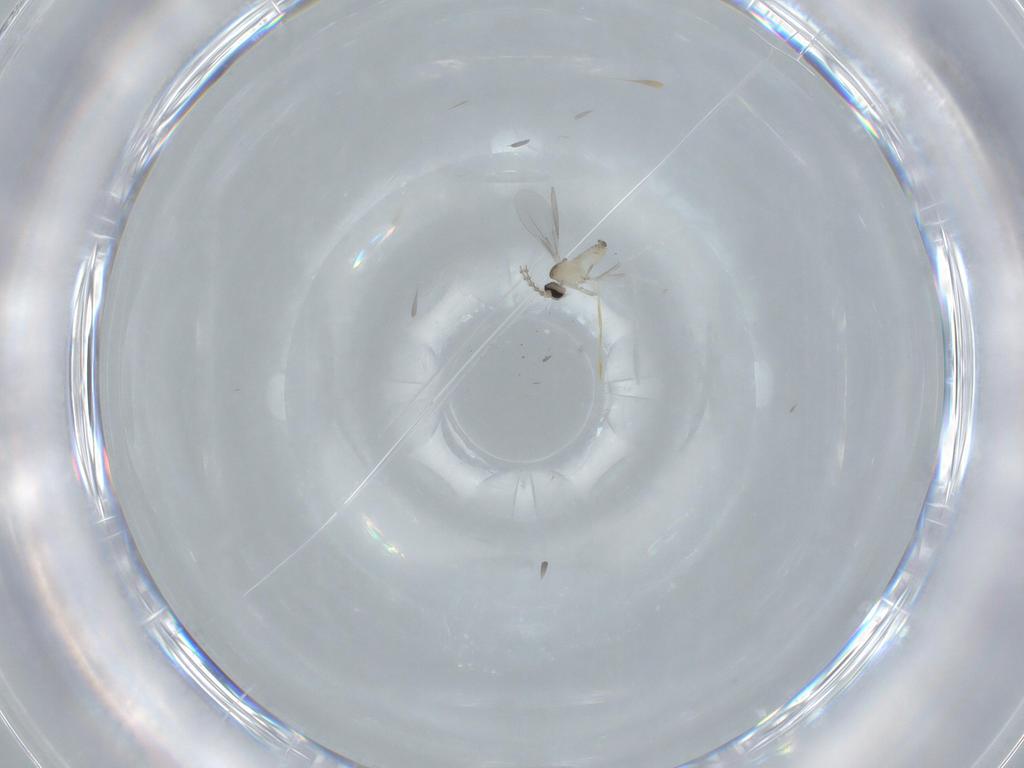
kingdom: Animalia
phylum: Arthropoda
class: Insecta
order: Diptera
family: Cecidomyiidae
